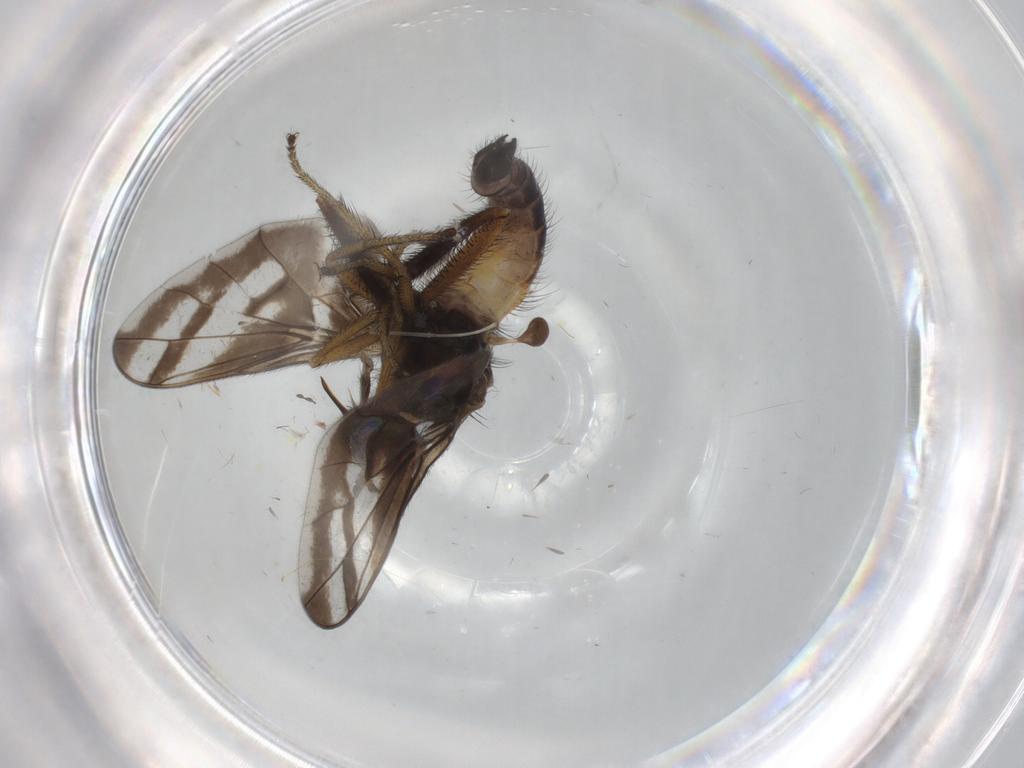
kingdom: Animalia
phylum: Arthropoda
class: Insecta
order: Diptera
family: Empididae
